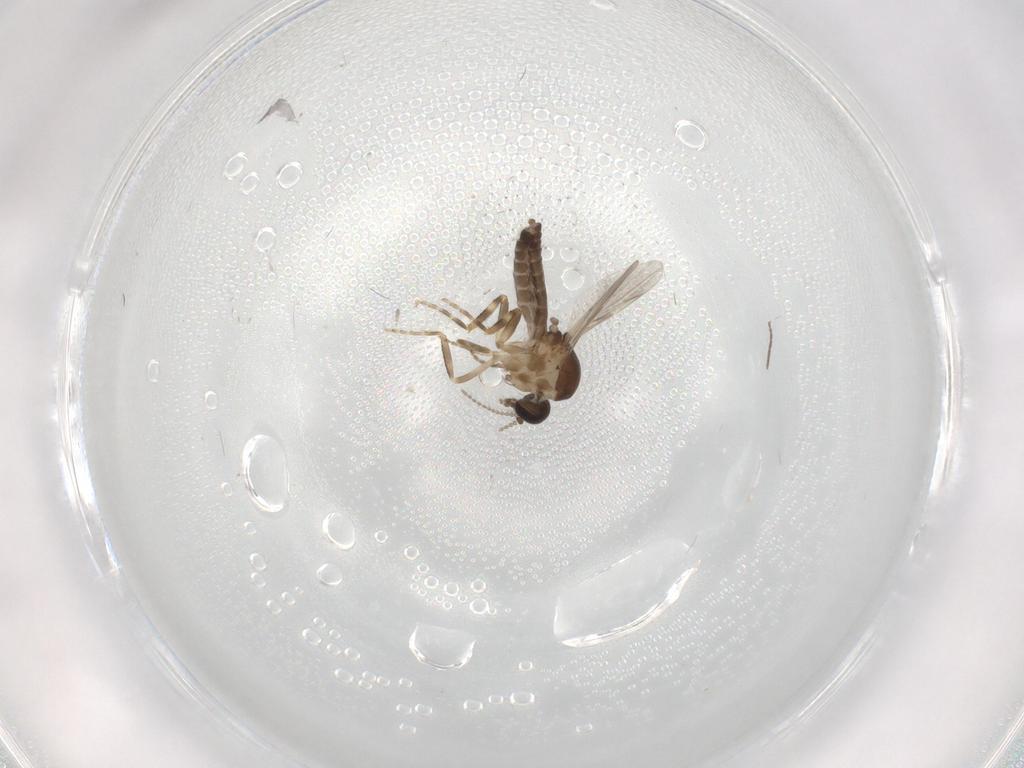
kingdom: Animalia
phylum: Arthropoda
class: Insecta
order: Diptera
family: Ceratopogonidae
